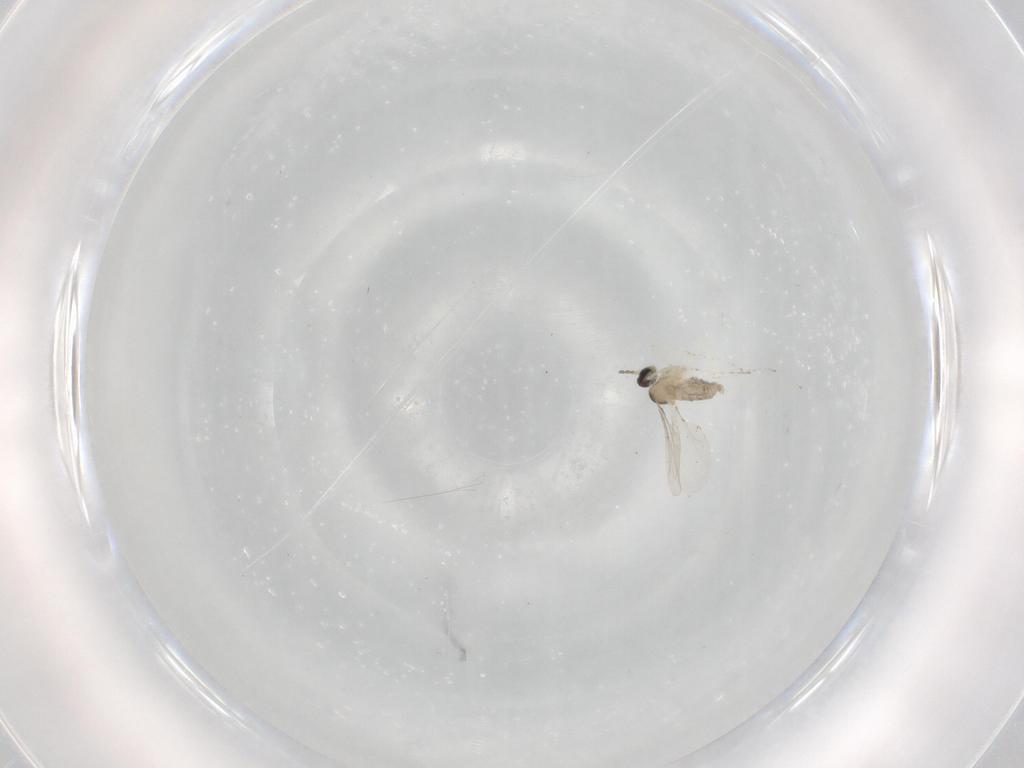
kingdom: Animalia
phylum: Arthropoda
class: Insecta
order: Diptera
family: Cecidomyiidae
